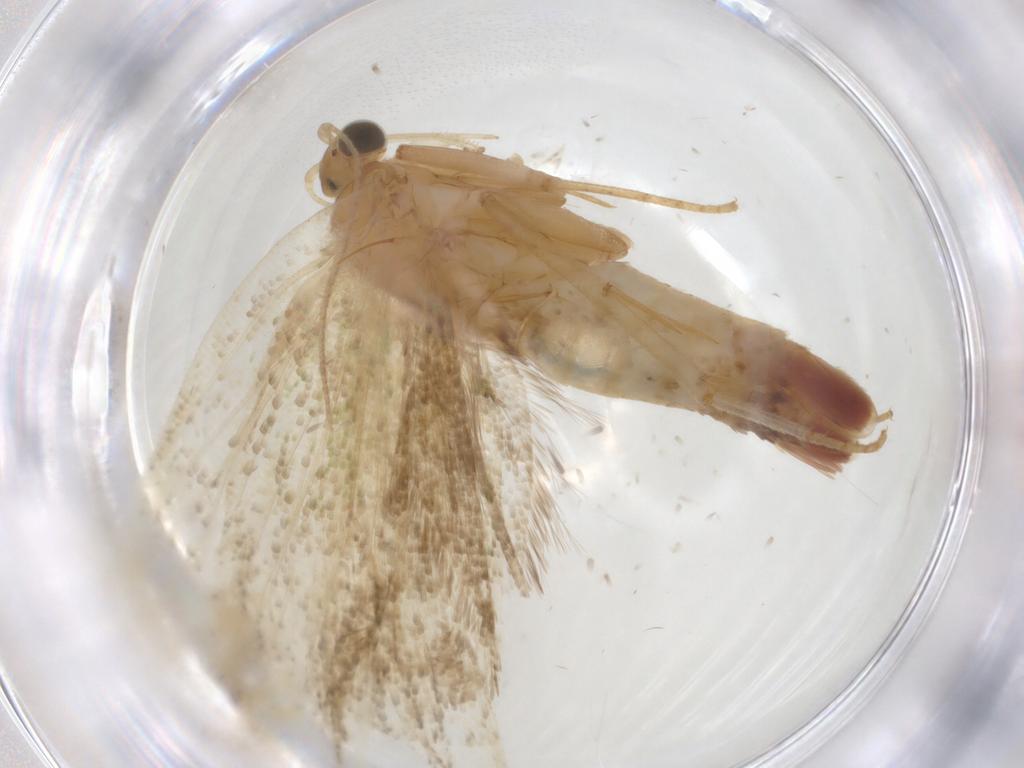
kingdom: Animalia
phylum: Arthropoda
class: Insecta
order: Lepidoptera
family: Tortricidae
